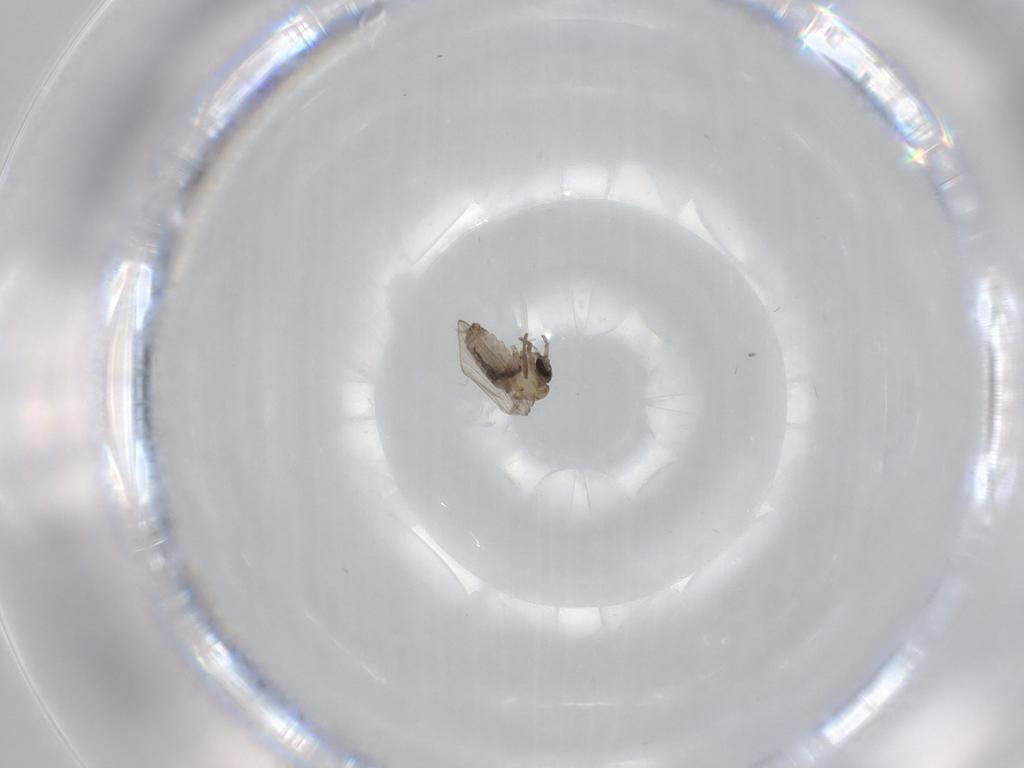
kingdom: Animalia
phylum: Arthropoda
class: Insecta
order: Diptera
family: Psychodidae
